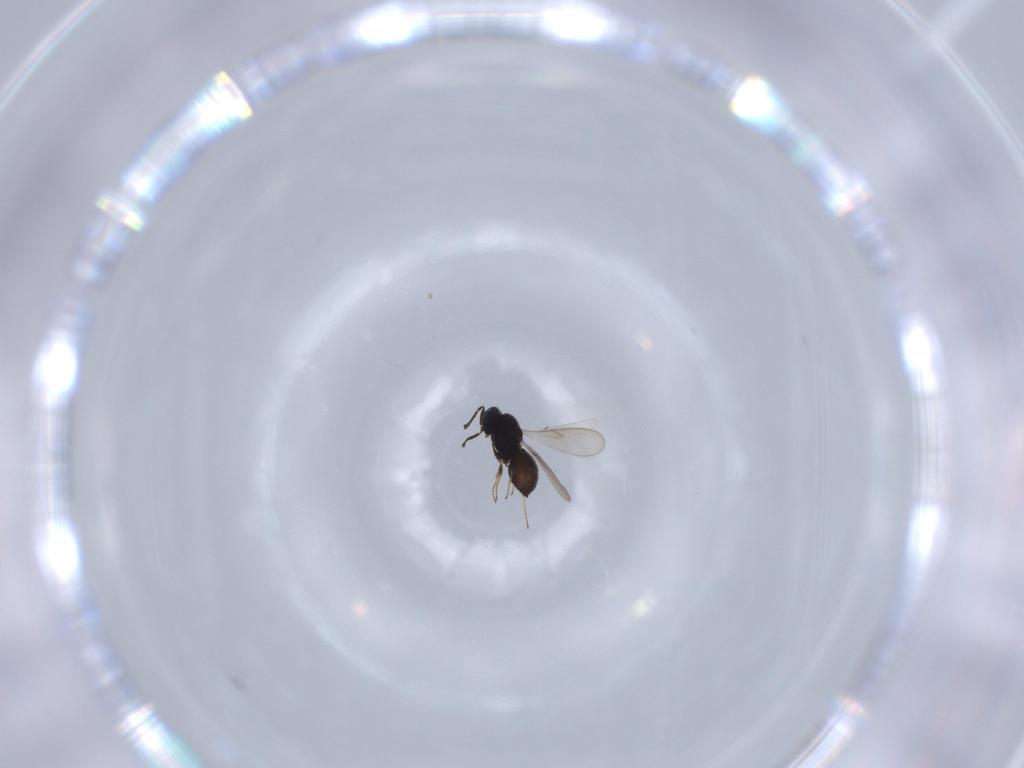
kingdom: Animalia
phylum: Arthropoda
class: Insecta
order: Hymenoptera
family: Scelionidae
